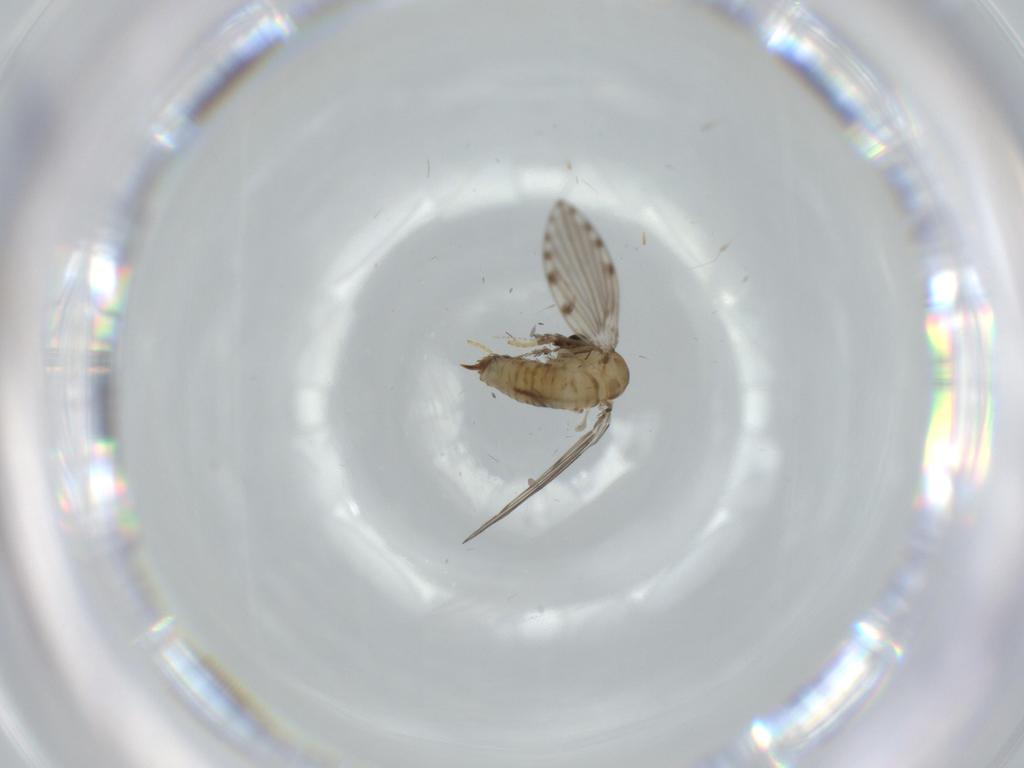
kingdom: Animalia
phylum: Arthropoda
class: Insecta
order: Diptera
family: Psychodidae
